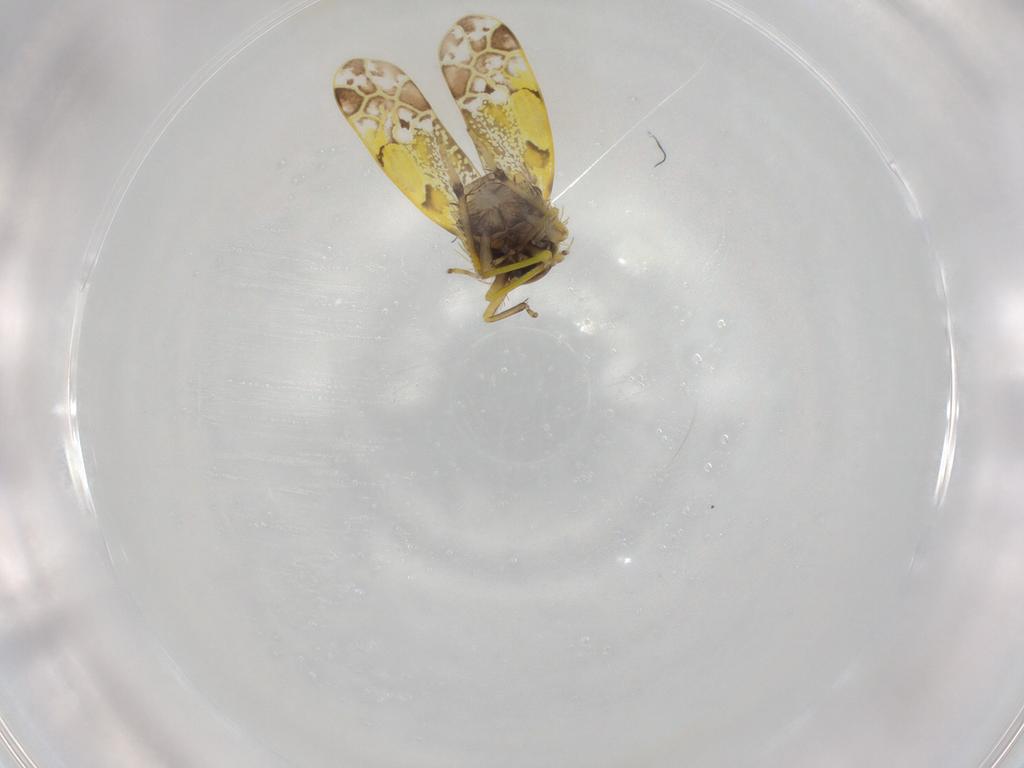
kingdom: Animalia
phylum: Arthropoda
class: Insecta
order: Hemiptera
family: Cicadellidae
